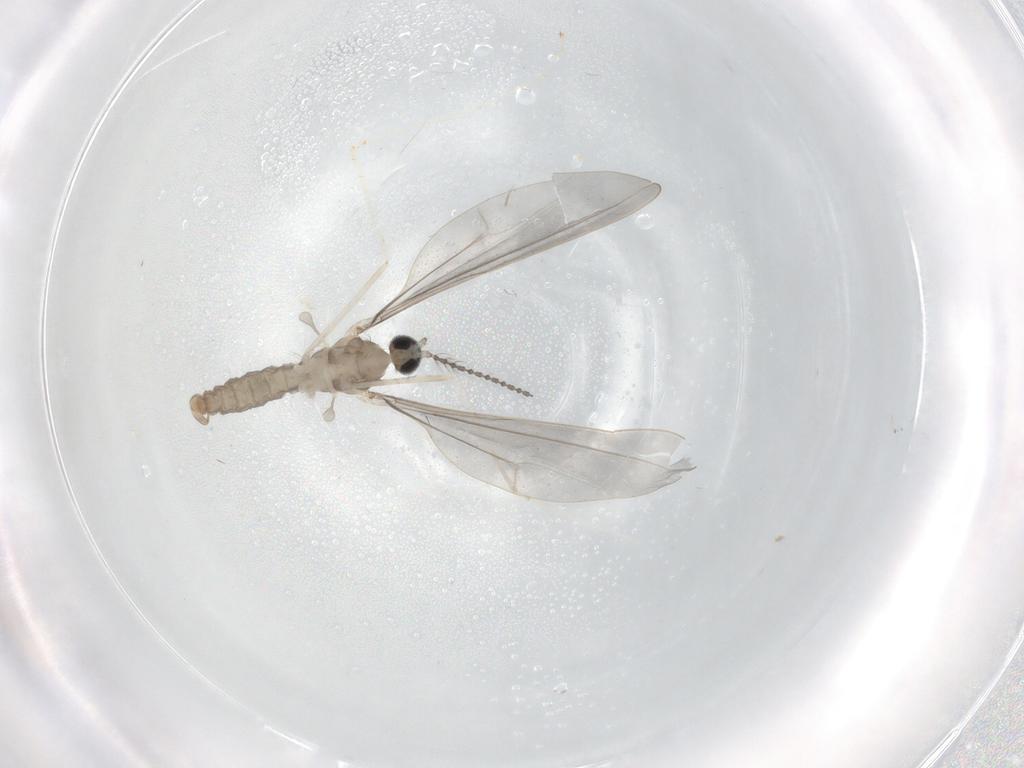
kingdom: Animalia
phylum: Arthropoda
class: Insecta
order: Diptera
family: Cecidomyiidae
